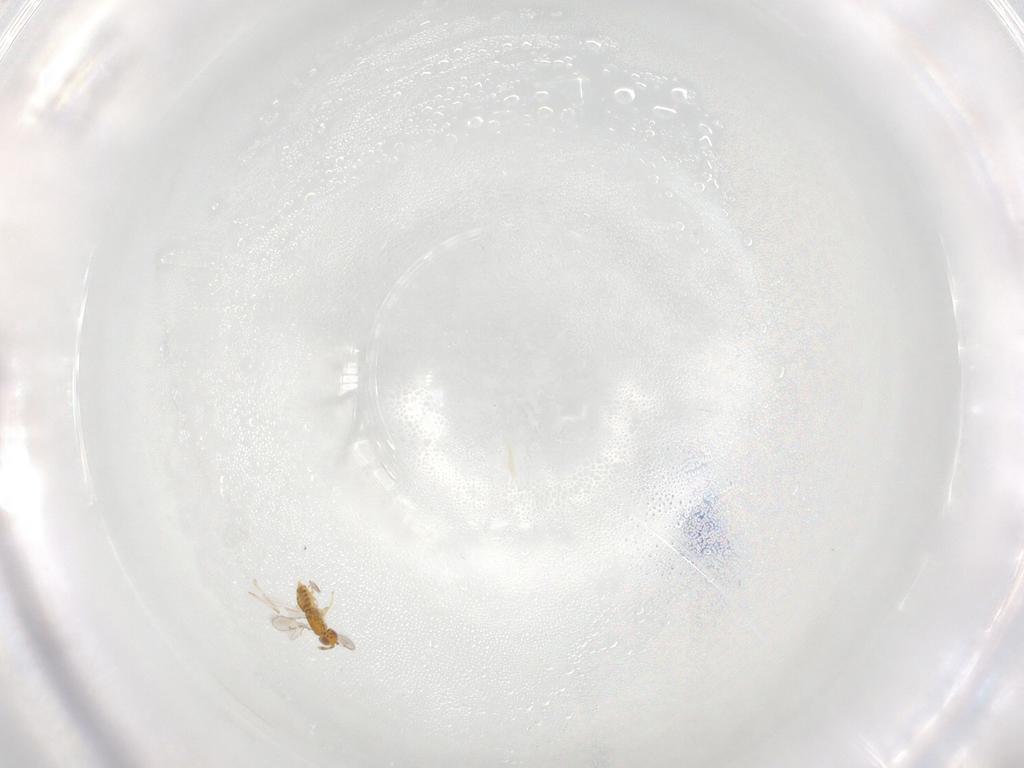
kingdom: Animalia
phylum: Arthropoda
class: Insecta
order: Hymenoptera
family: Aphelinidae
